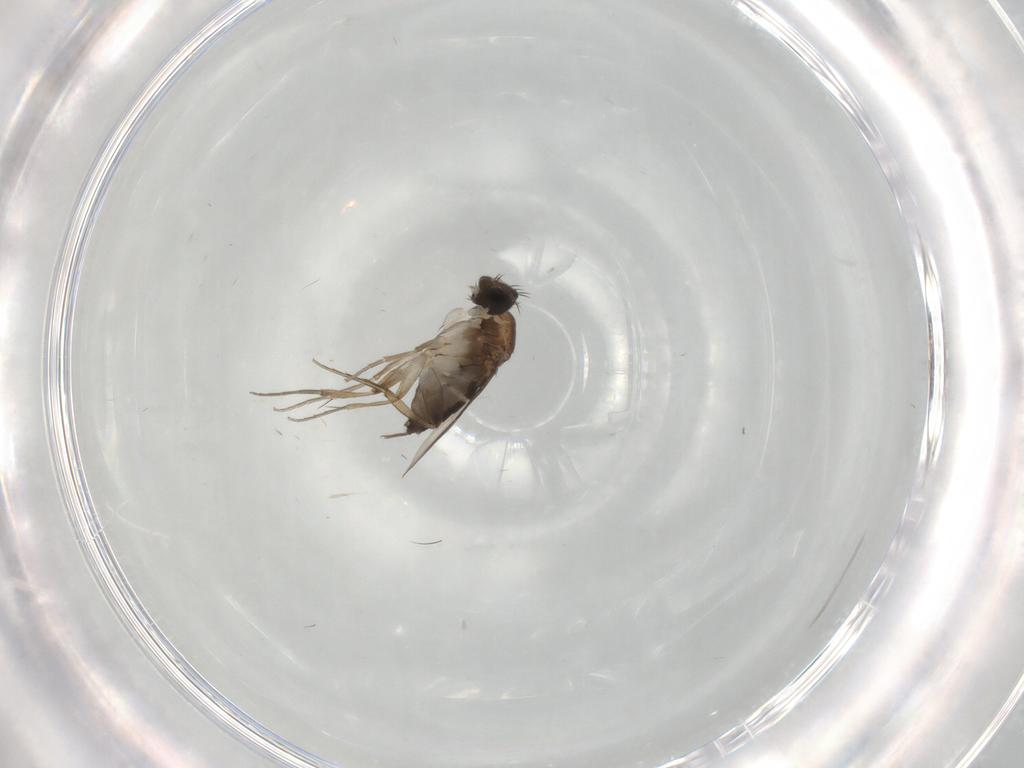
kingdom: Animalia
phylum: Arthropoda
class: Insecta
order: Diptera
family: Phoridae
